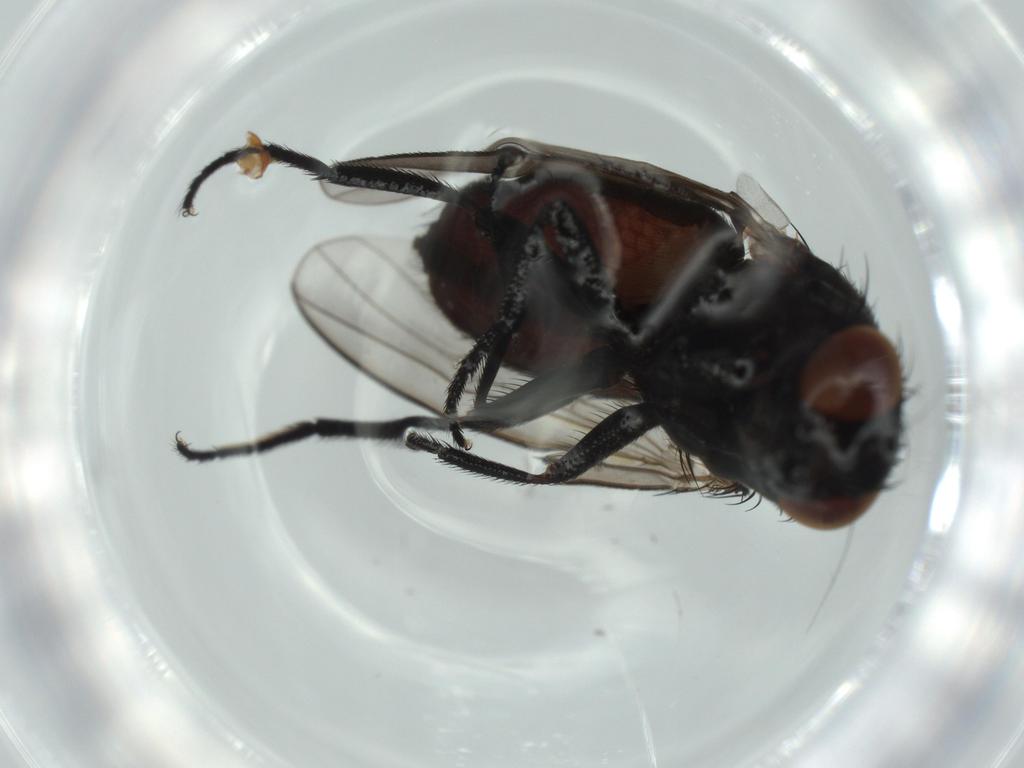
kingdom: Animalia
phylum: Arthropoda
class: Insecta
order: Diptera
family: Milichiidae
